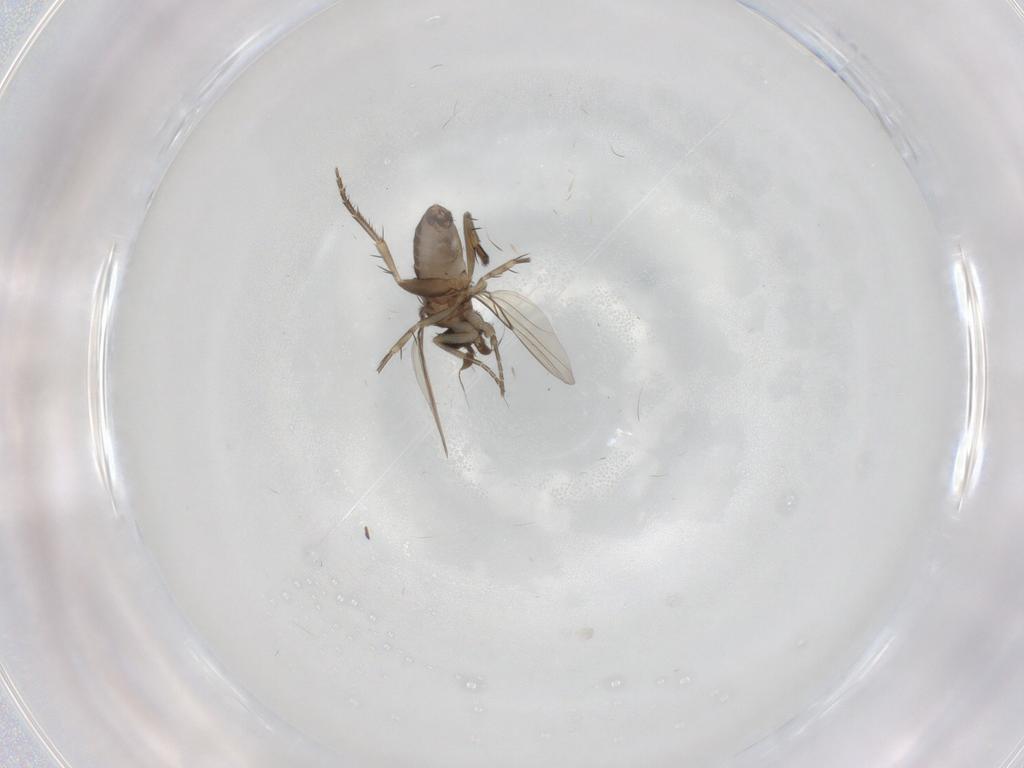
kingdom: Animalia
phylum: Arthropoda
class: Insecta
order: Diptera
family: Phoridae
